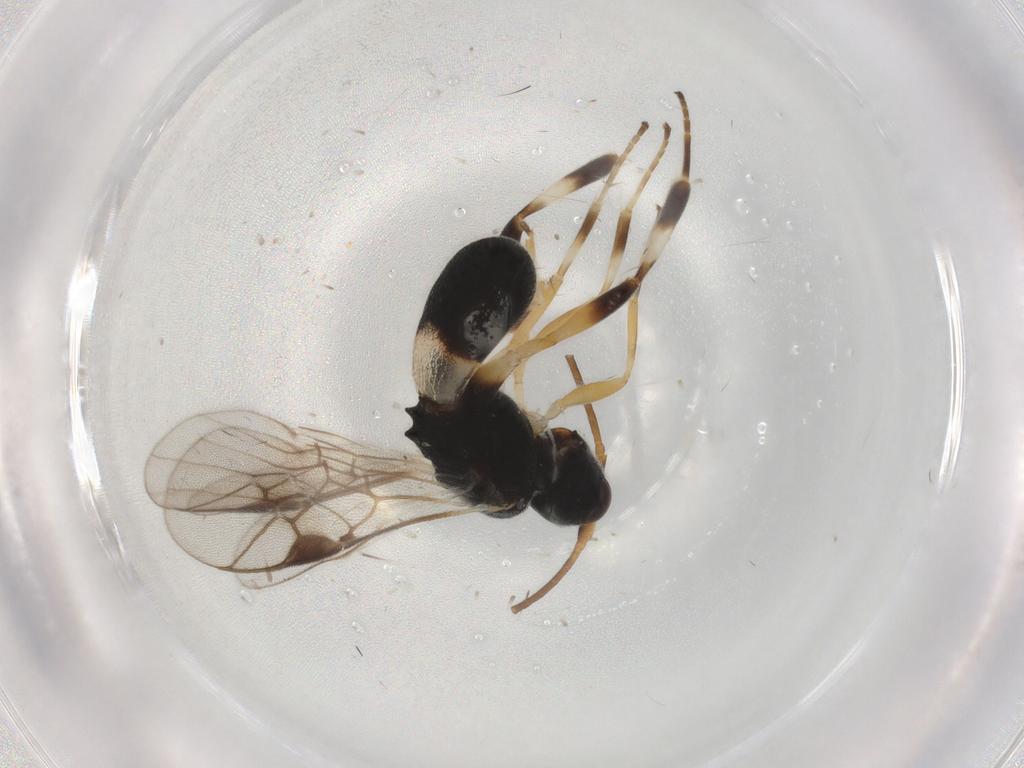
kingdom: Animalia
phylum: Arthropoda
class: Insecta
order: Hymenoptera
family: Braconidae
